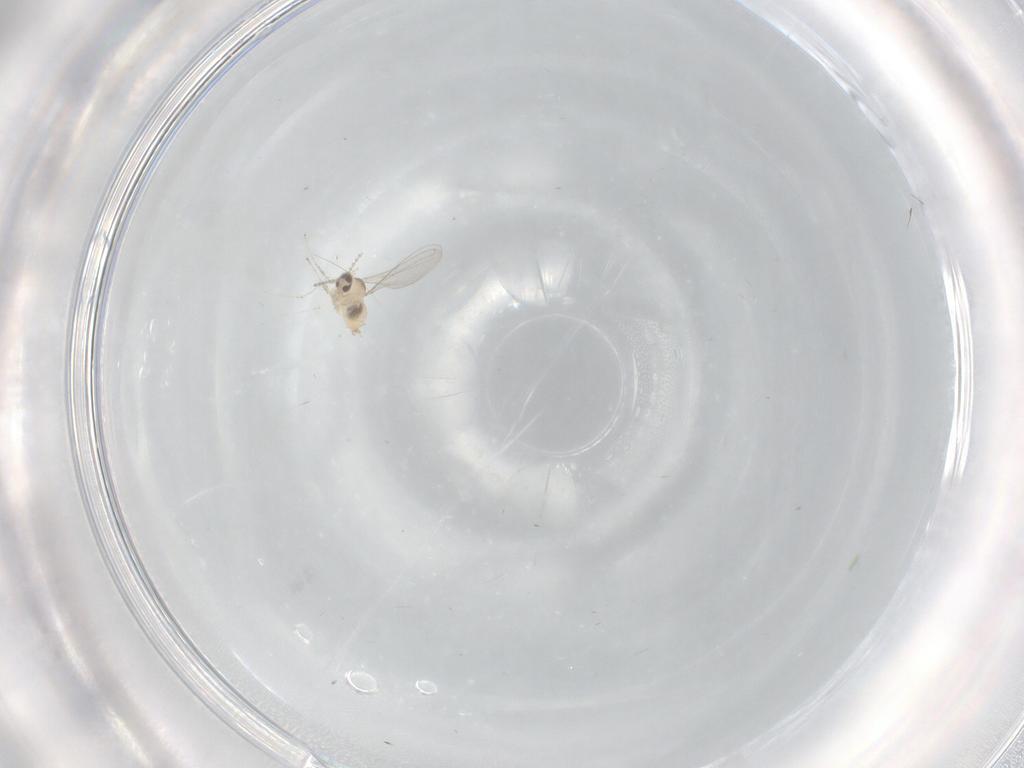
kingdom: Animalia
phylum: Arthropoda
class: Insecta
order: Diptera
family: Cecidomyiidae
